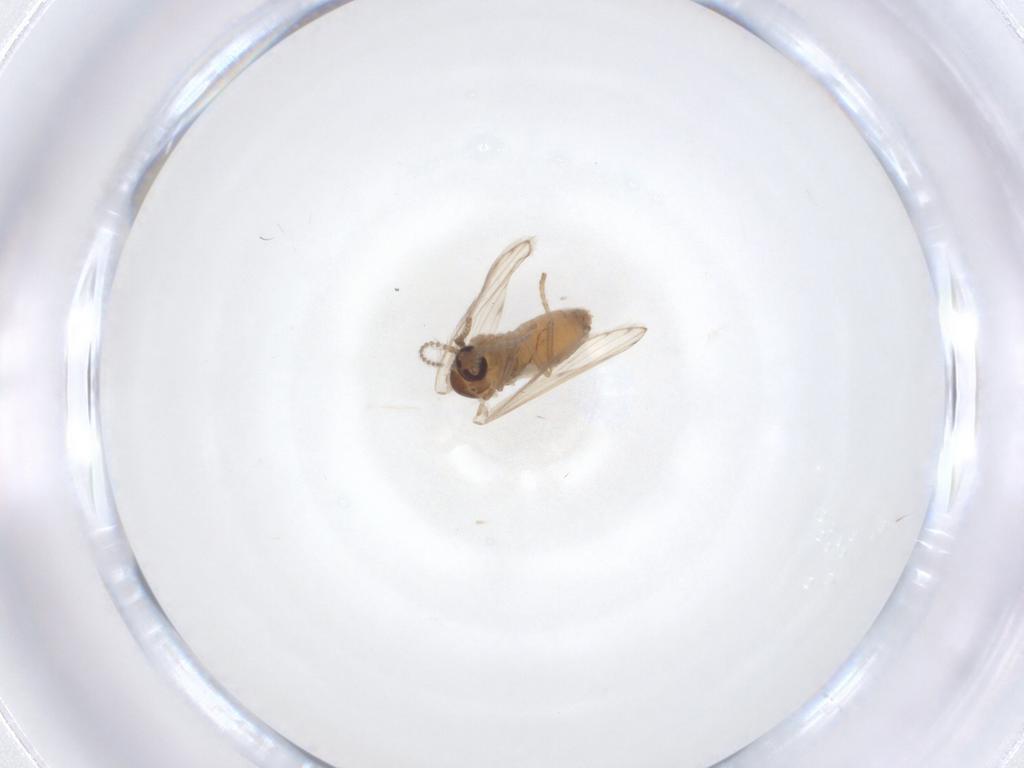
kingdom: Animalia
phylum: Arthropoda
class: Insecta
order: Diptera
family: Psychodidae
